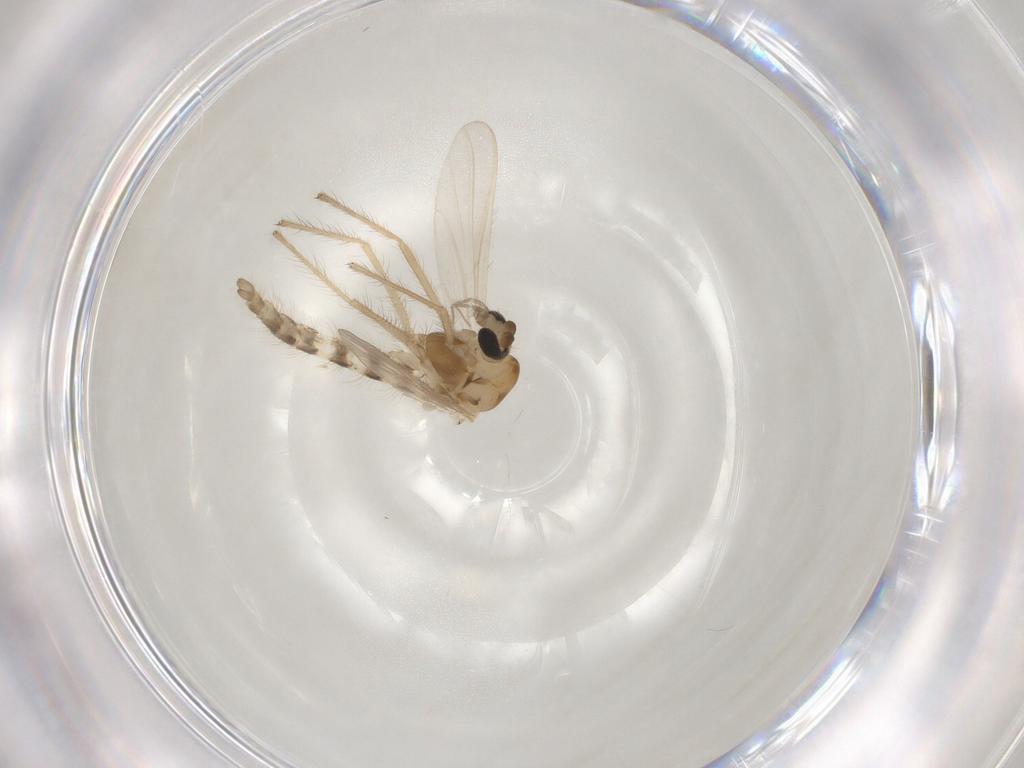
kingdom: Animalia
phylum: Arthropoda
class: Insecta
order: Diptera
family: Chironomidae
